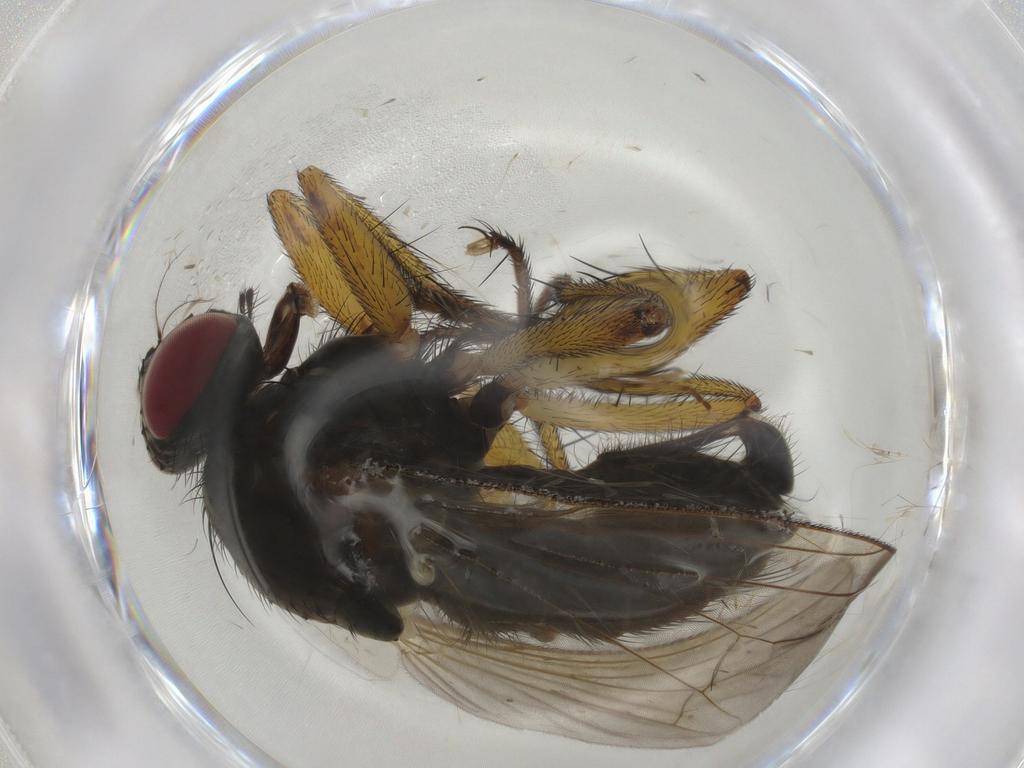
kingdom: Animalia
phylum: Arthropoda
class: Insecta
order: Diptera
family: Muscidae
